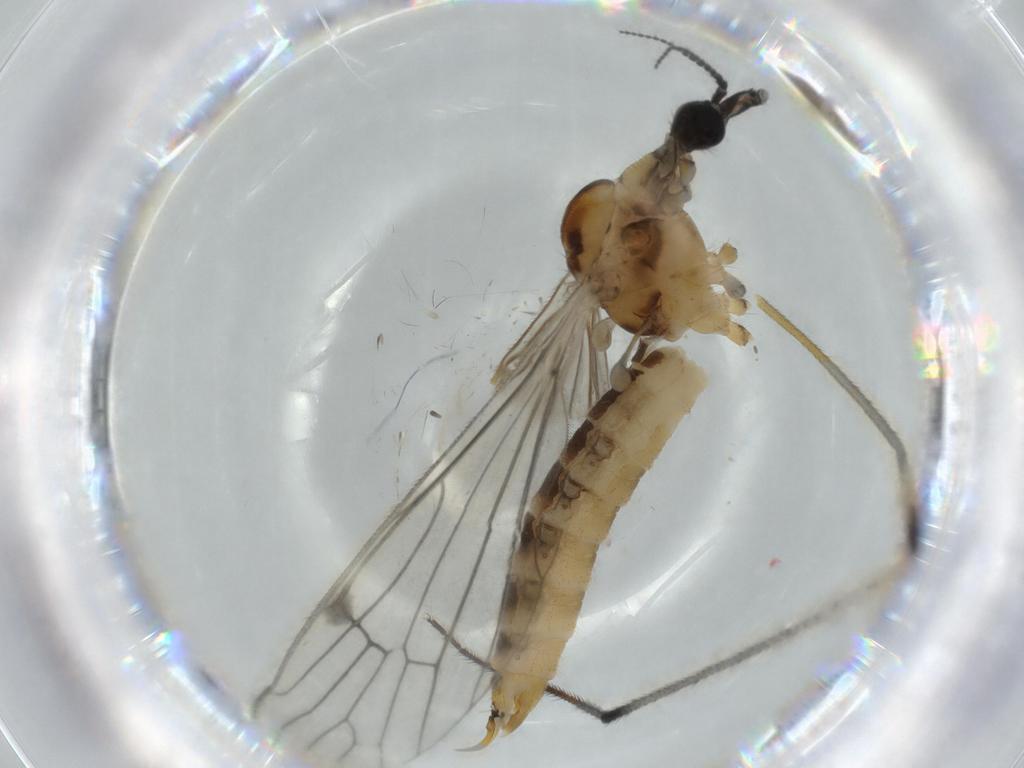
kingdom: Animalia
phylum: Arthropoda
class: Insecta
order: Diptera
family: Limoniidae
